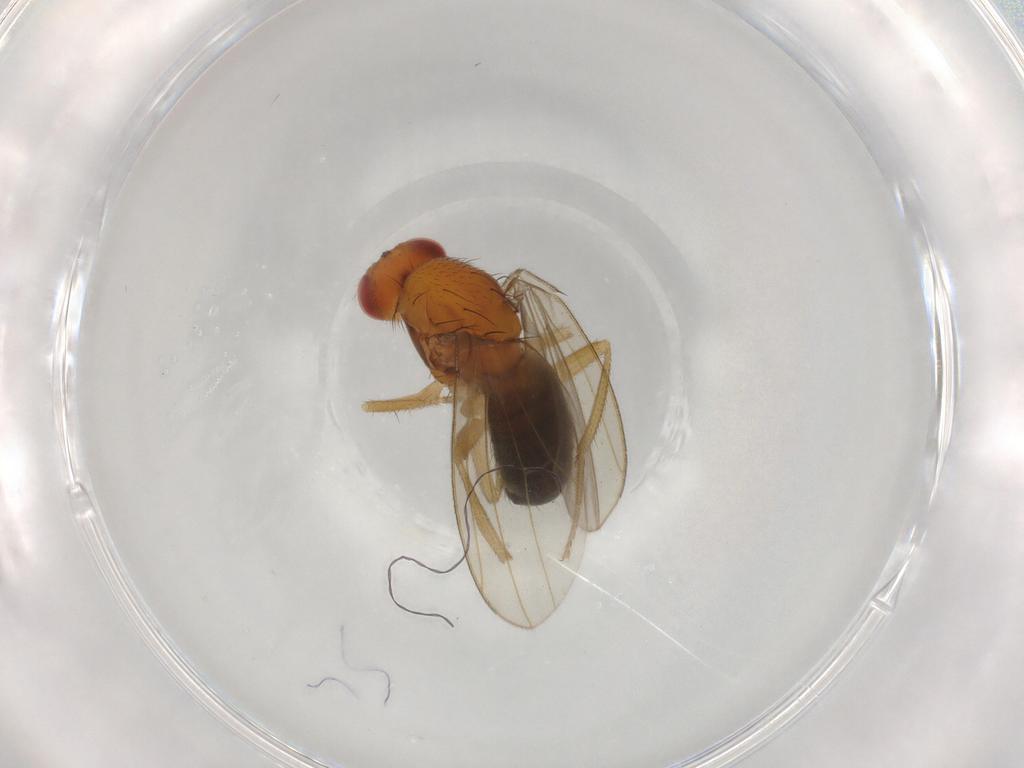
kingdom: Animalia
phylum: Arthropoda
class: Insecta
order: Diptera
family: Drosophilidae
